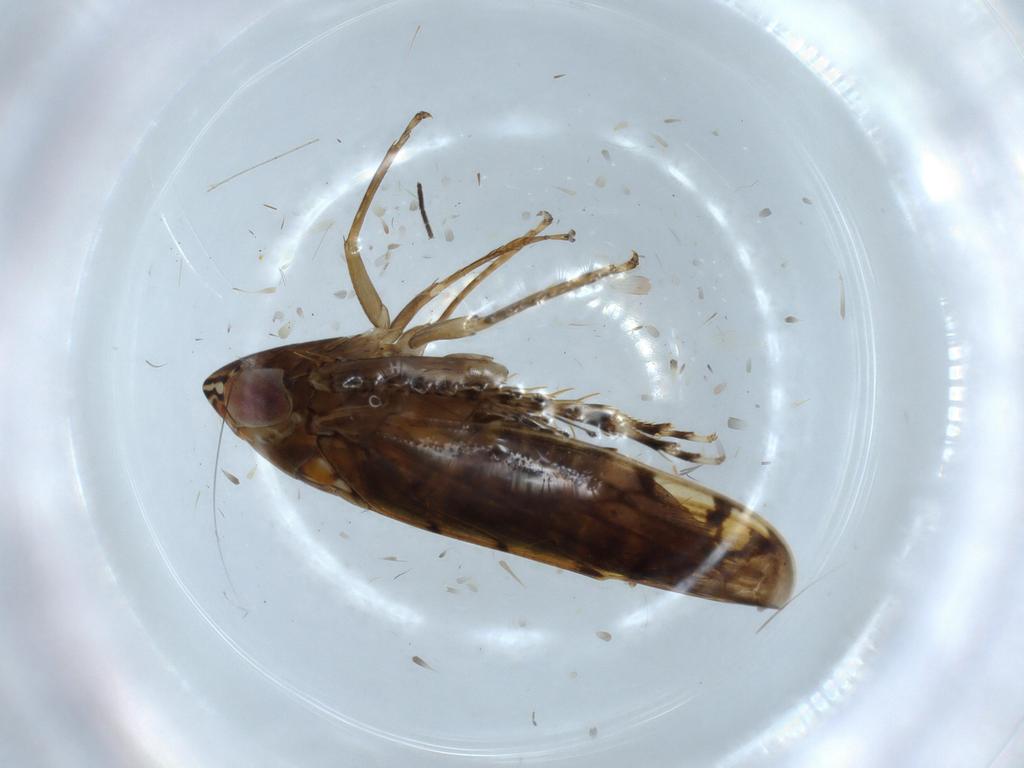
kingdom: Animalia
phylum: Arthropoda
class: Insecta
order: Hemiptera
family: Cicadellidae
